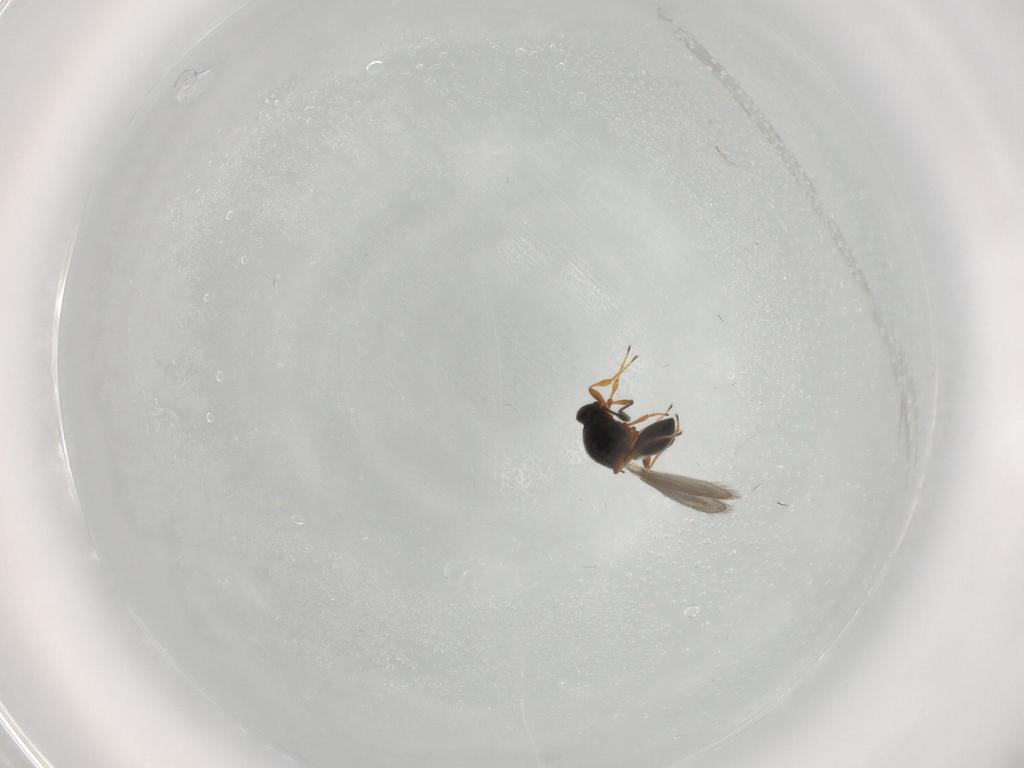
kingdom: Animalia
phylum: Arthropoda
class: Insecta
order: Hymenoptera
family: Platygastridae
